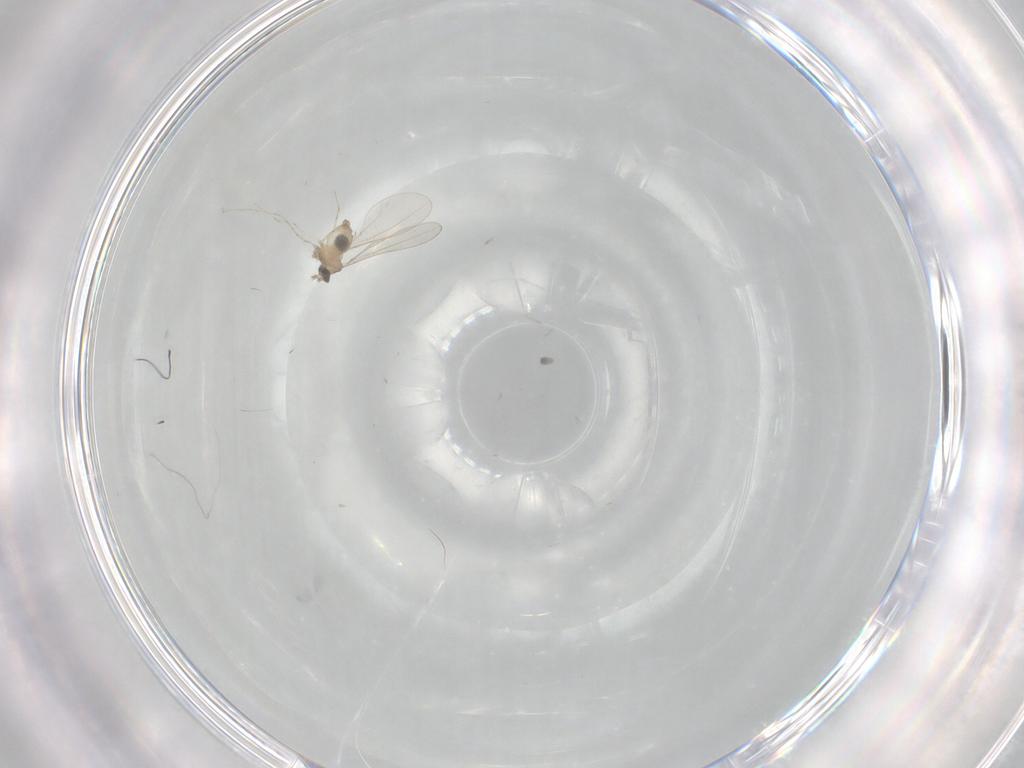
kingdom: Animalia
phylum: Arthropoda
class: Insecta
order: Diptera
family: Cecidomyiidae
